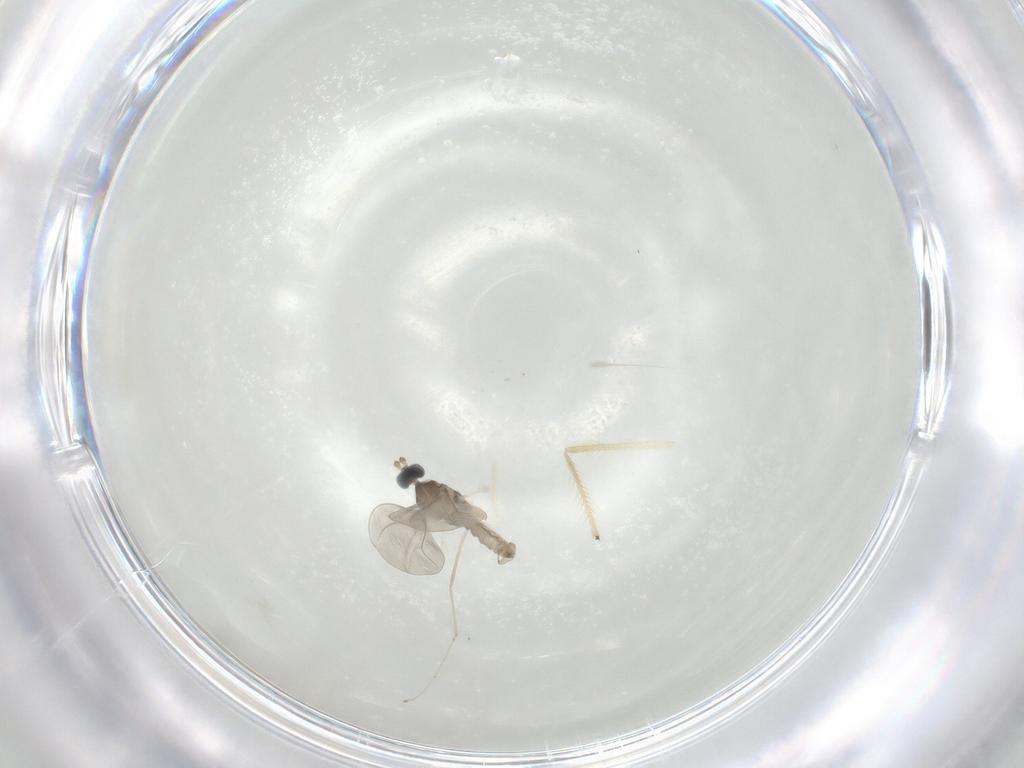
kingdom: Animalia
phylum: Arthropoda
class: Insecta
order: Diptera
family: Cecidomyiidae
